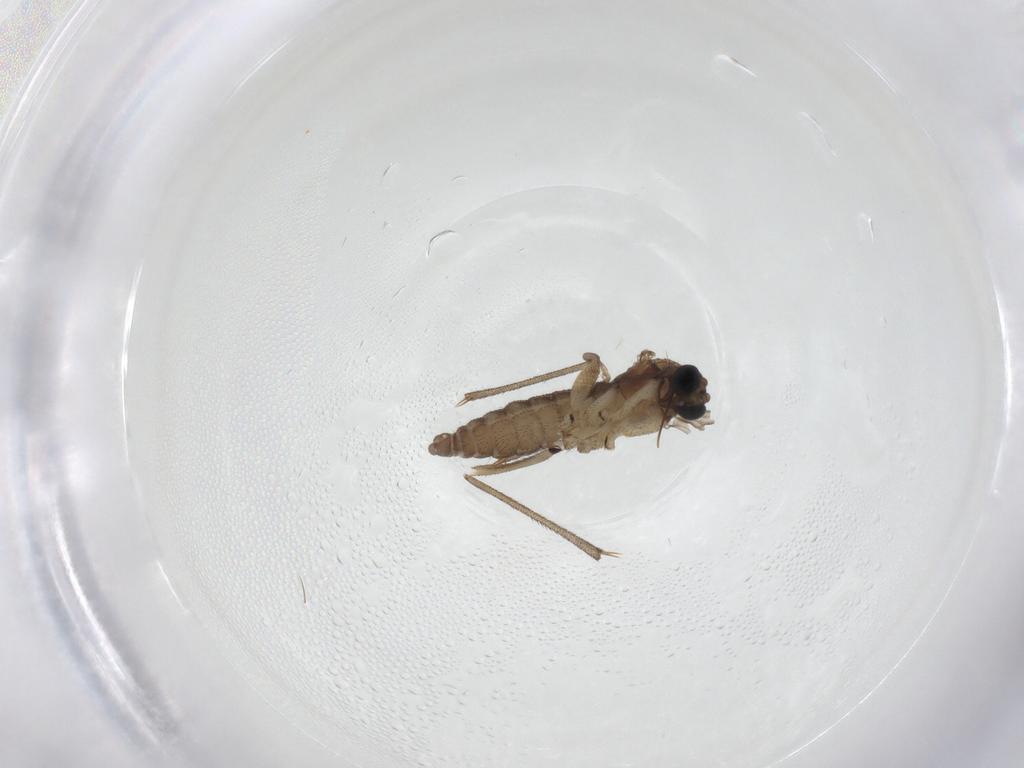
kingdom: Animalia
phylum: Arthropoda
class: Insecta
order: Diptera
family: Sciaridae
